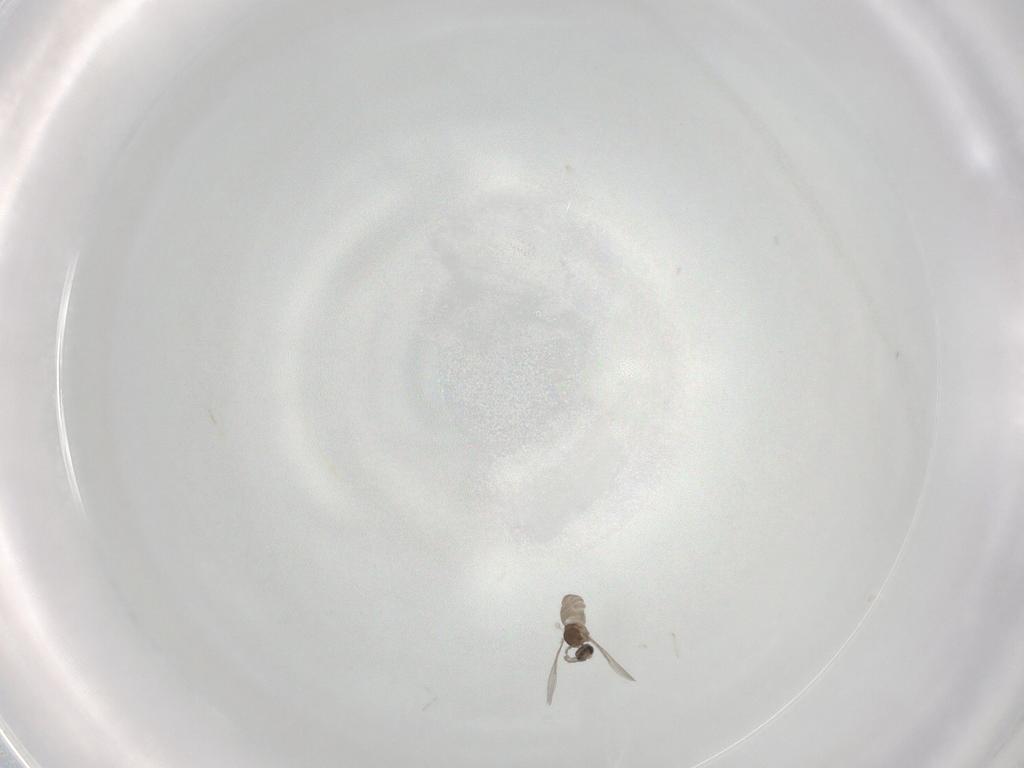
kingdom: Animalia
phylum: Arthropoda
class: Insecta
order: Diptera
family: Cecidomyiidae
